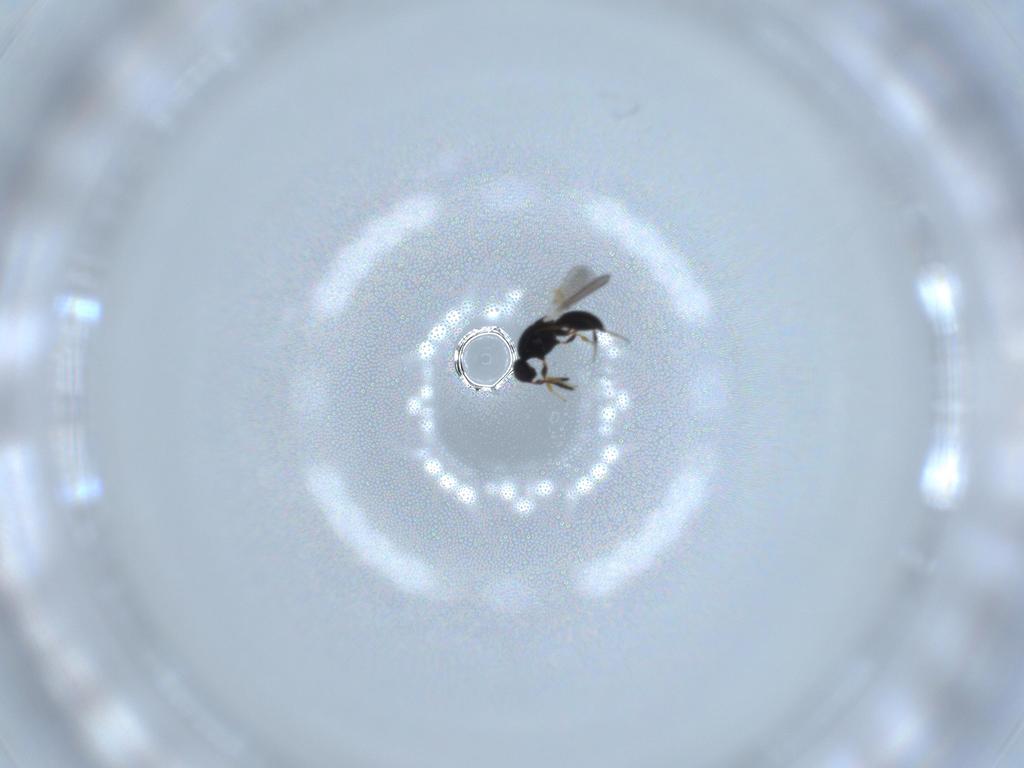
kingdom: Animalia
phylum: Arthropoda
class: Insecta
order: Hymenoptera
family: Platygastridae
